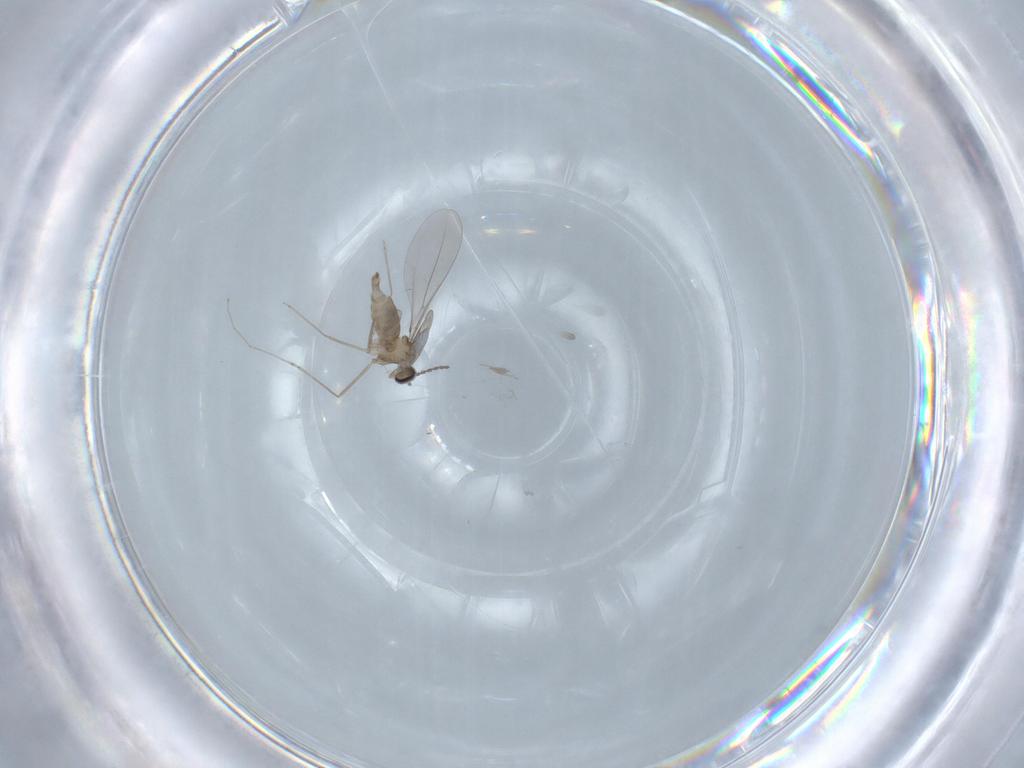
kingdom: Animalia
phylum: Arthropoda
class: Insecta
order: Diptera
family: Cecidomyiidae
